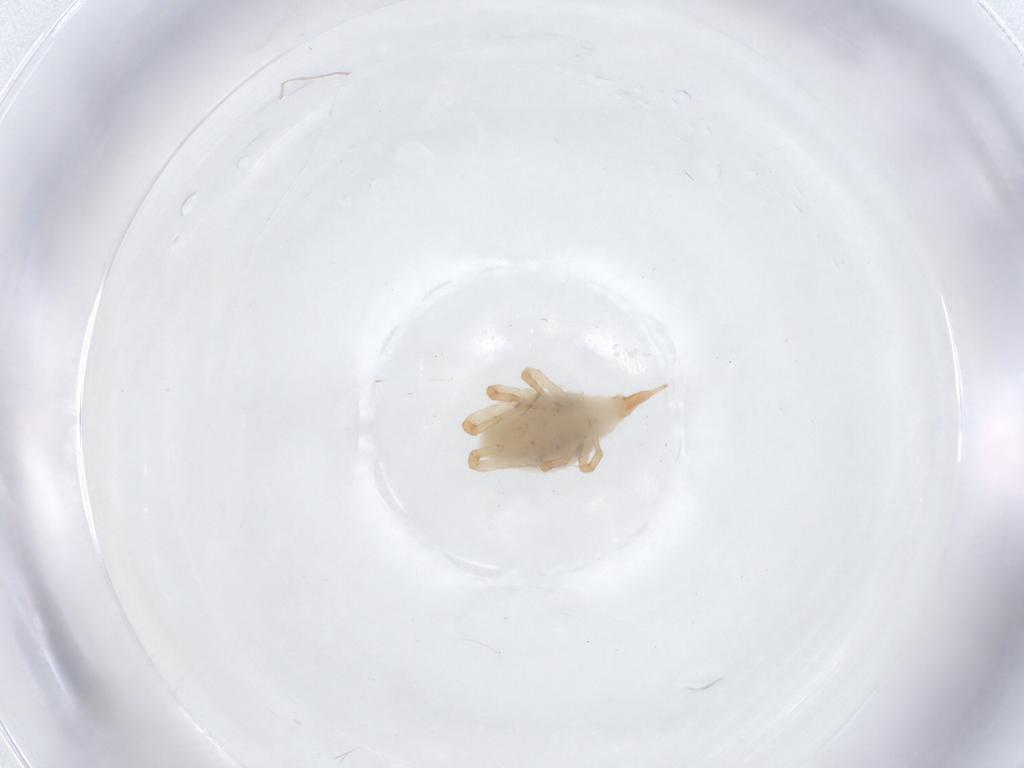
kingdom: Animalia
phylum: Arthropoda
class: Arachnida
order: Trombidiformes
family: Bdellidae
